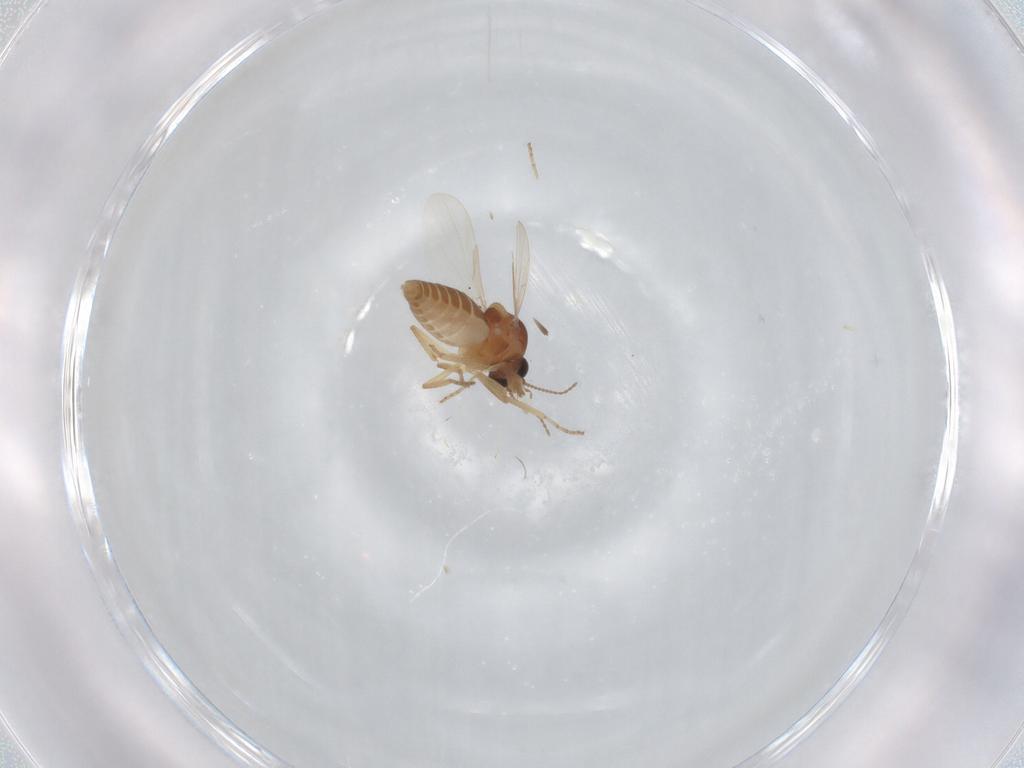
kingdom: Animalia
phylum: Arthropoda
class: Insecta
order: Diptera
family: Ceratopogonidae
